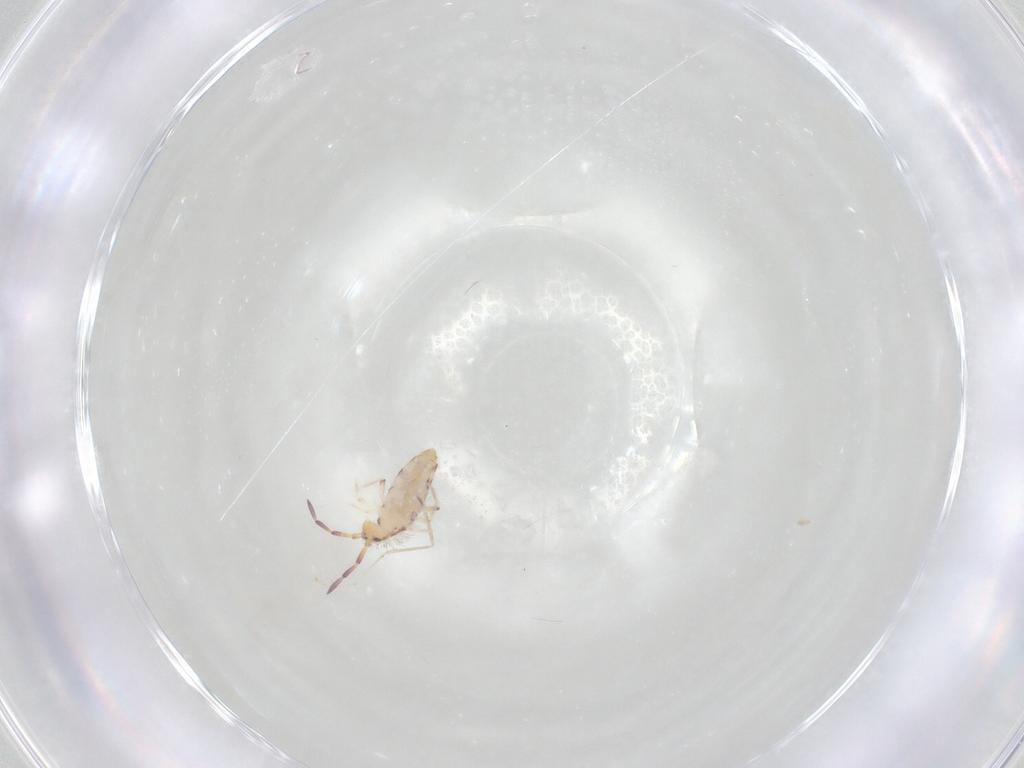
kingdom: Animalia
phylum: Arthropoda
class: Collembola
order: Entomobryomorpha
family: Entomobryidae
